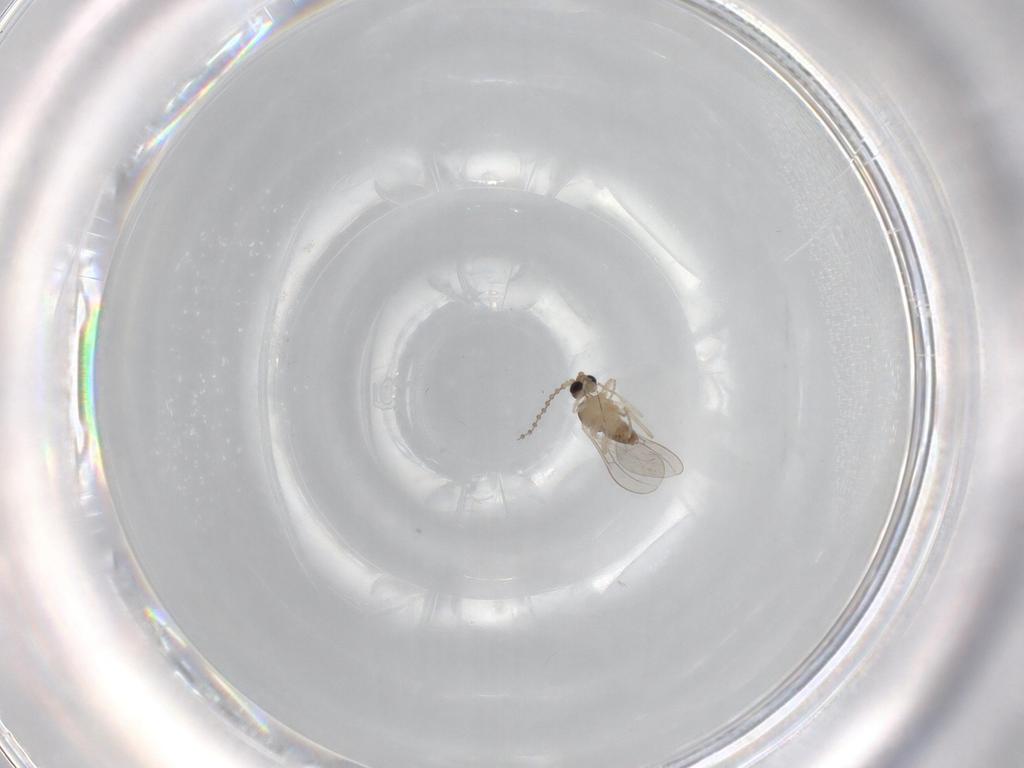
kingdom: Animalia
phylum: Arthropoda
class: Insecta
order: Diptera
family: Cecidomyiidae
